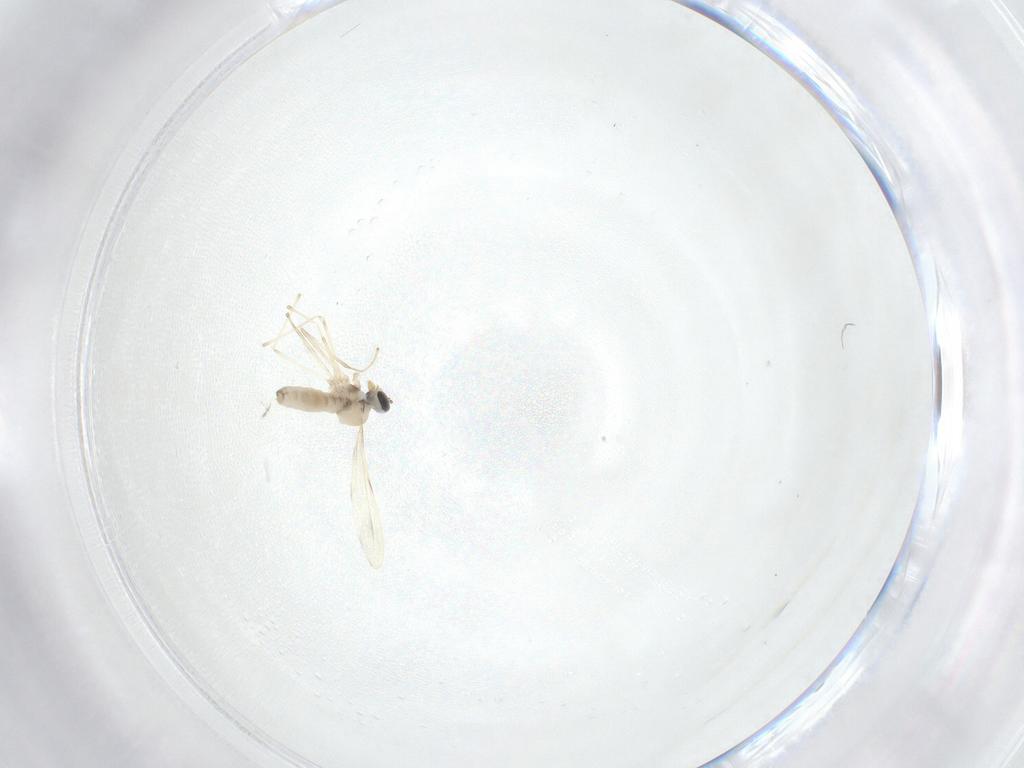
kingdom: Animalia
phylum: Arthropoda
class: Insecta
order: Diptera
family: Cecidomyiidae
